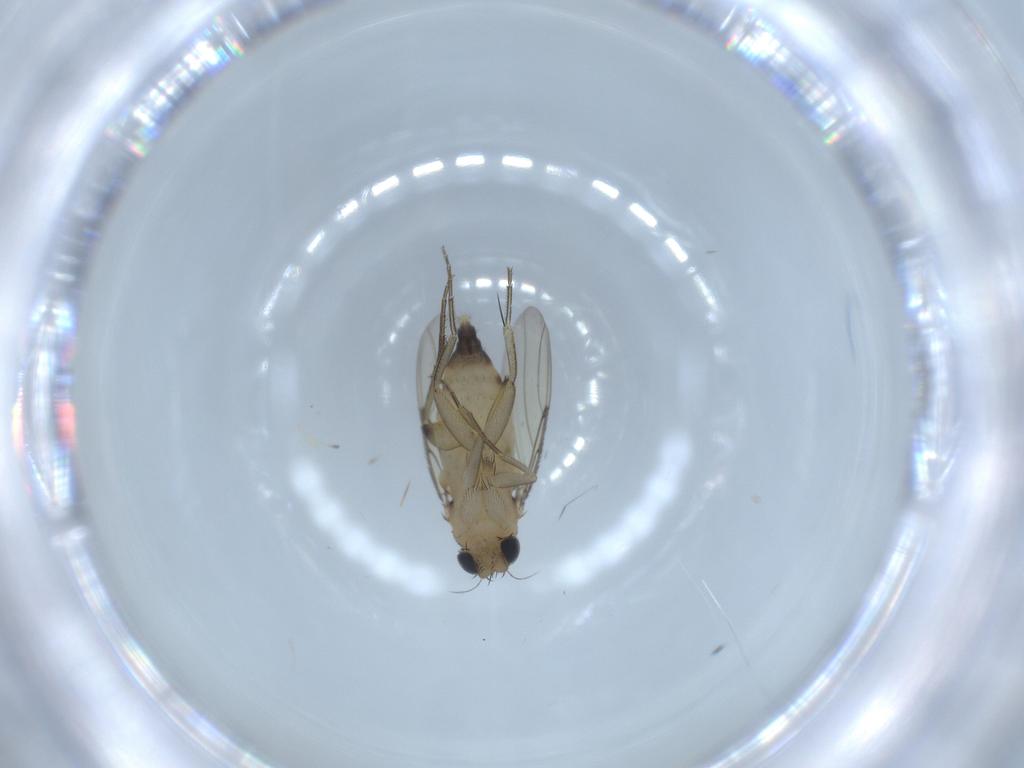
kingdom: Animalia
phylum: Arthropoda
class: Insecta
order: Diptera
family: Phoridae
